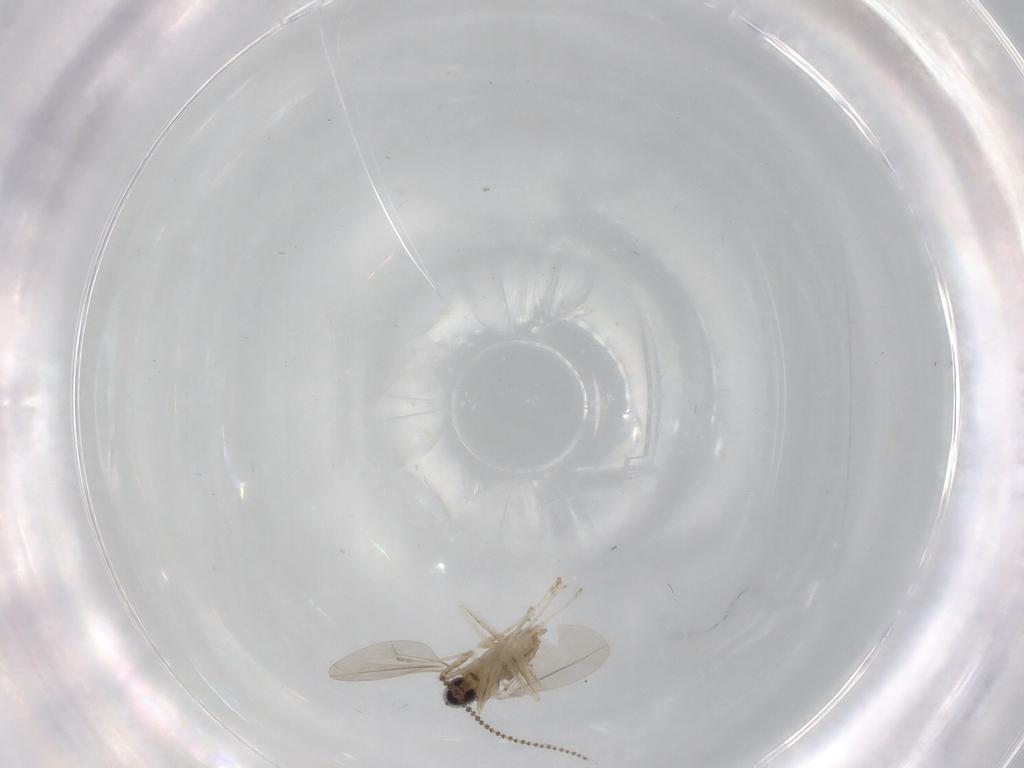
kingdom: Animalia
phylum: Arthropoda
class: Insecta
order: Diptera
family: Cecidomyiidae
